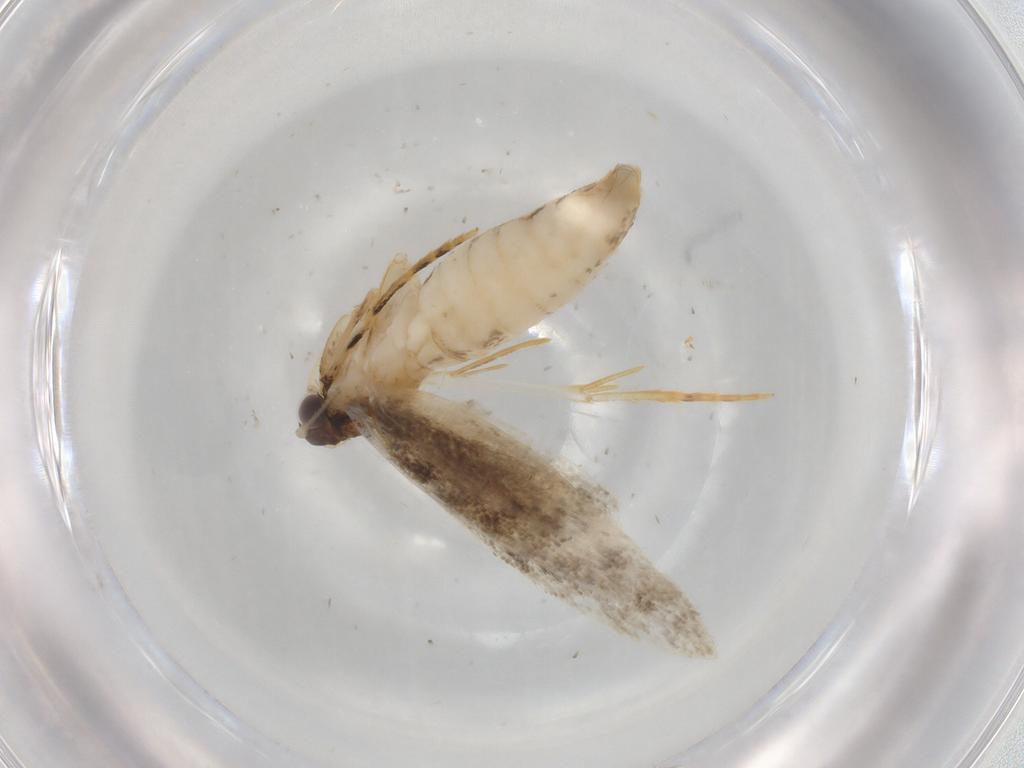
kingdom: Animalia
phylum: Arthropoda
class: Insecta
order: Lepidoptera
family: Tineidae
